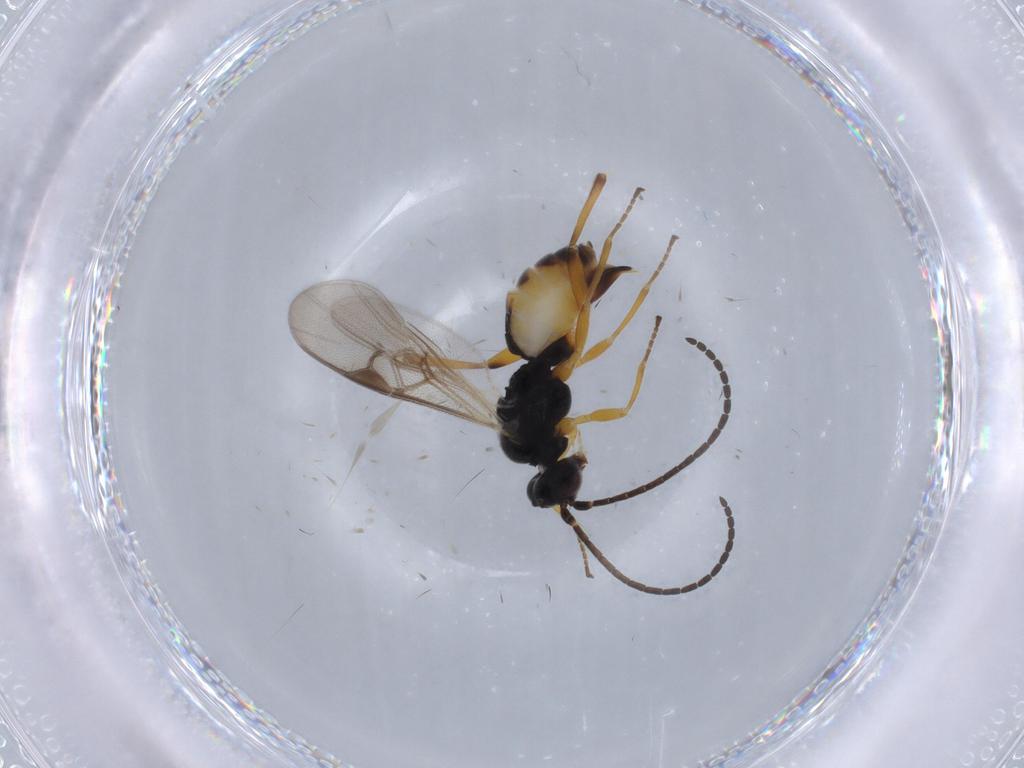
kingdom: Animalia
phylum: Arthropoda
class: Insecta
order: Hymenoptera
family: Braconidae
